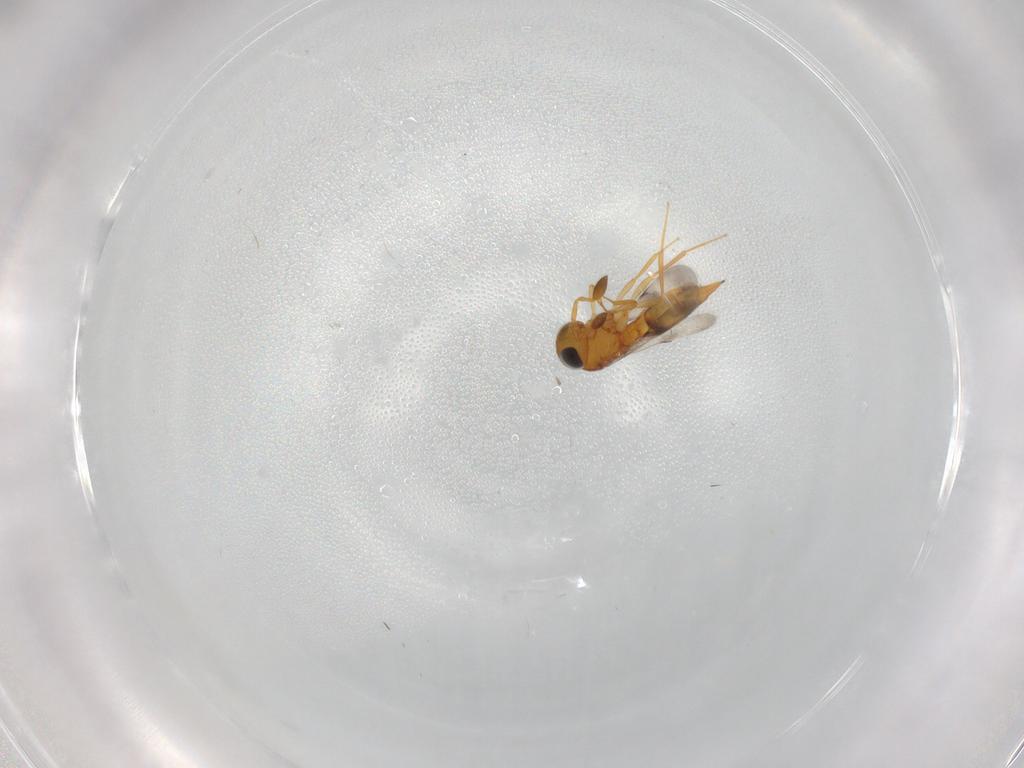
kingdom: Animalia
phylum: Arthropoda
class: Insecta
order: Hymenoptera
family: Scelionidae
